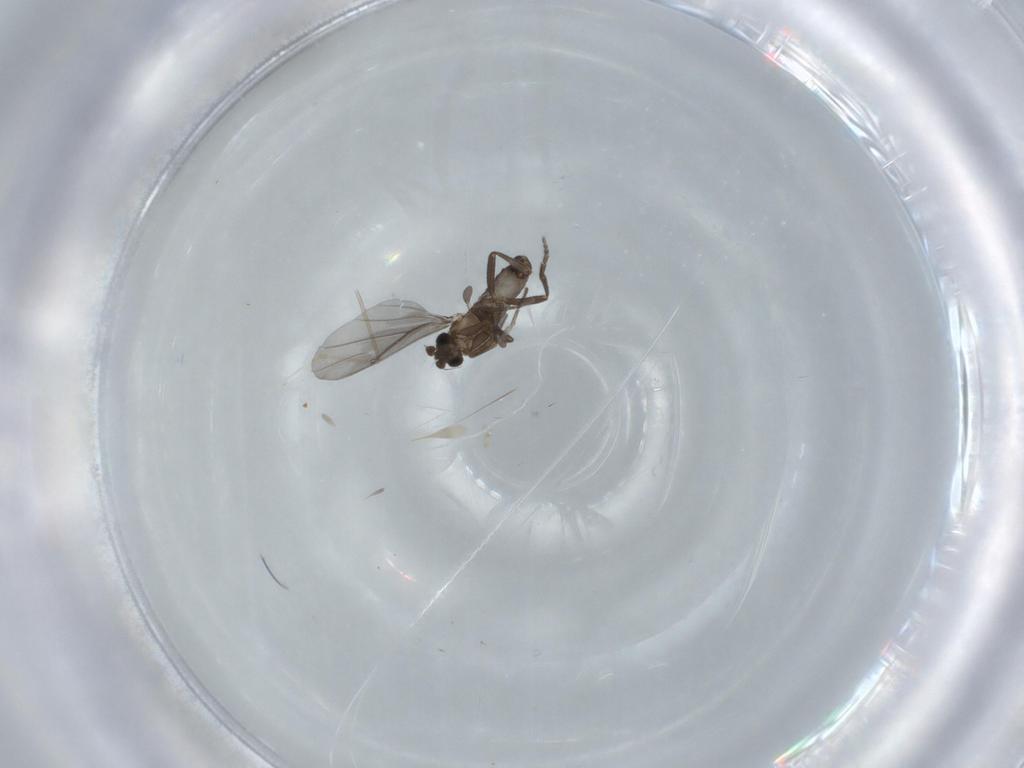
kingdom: Animalia
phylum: Arthropoda
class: Insecta
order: Diptera
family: Phoridae
